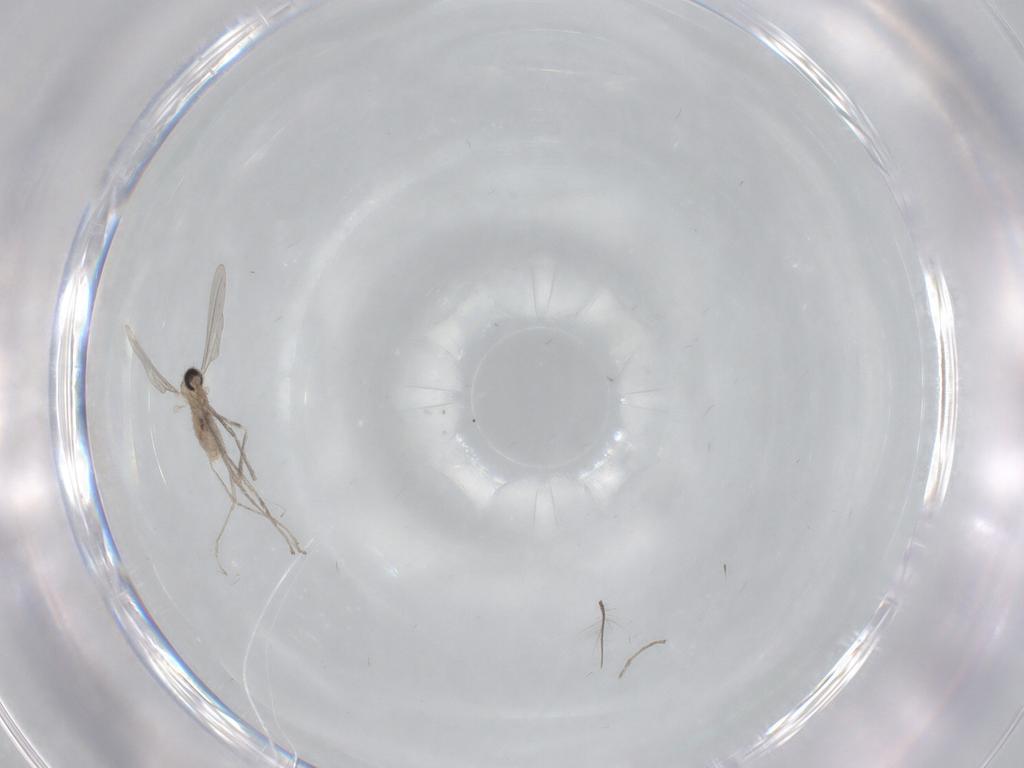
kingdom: Animalia
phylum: Arthropoda
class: Insecta
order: Diptera
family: Chironomidae
